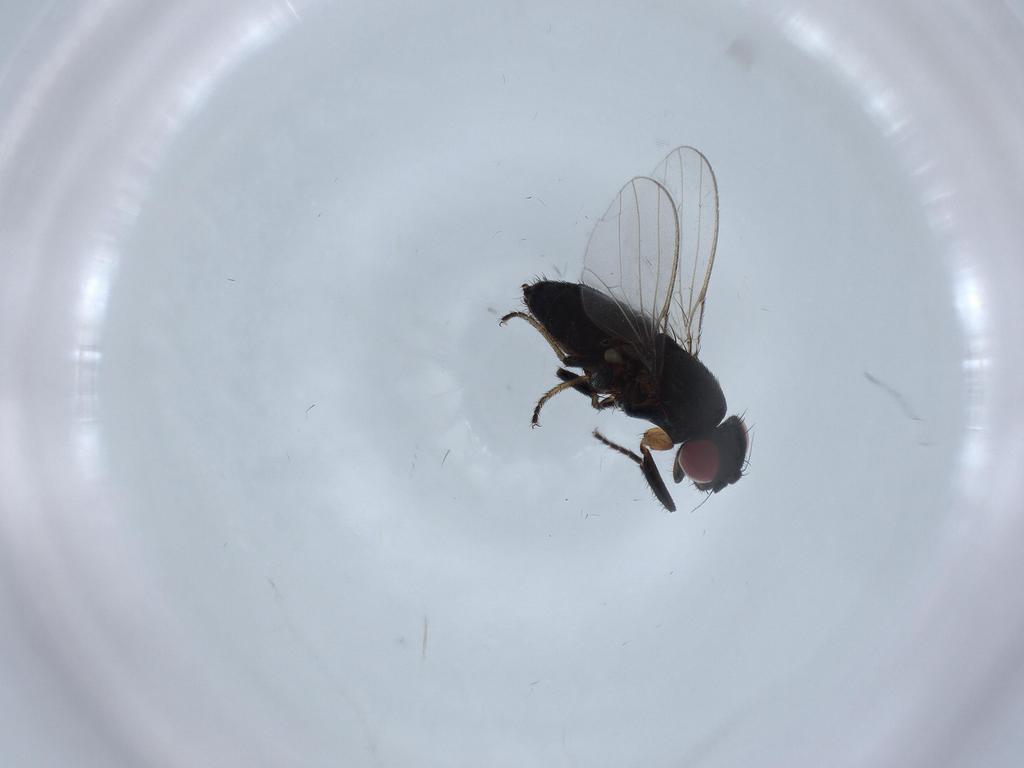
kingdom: Animalia
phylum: Arthropoda
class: Insecta
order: Diptera
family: Milichiidae
